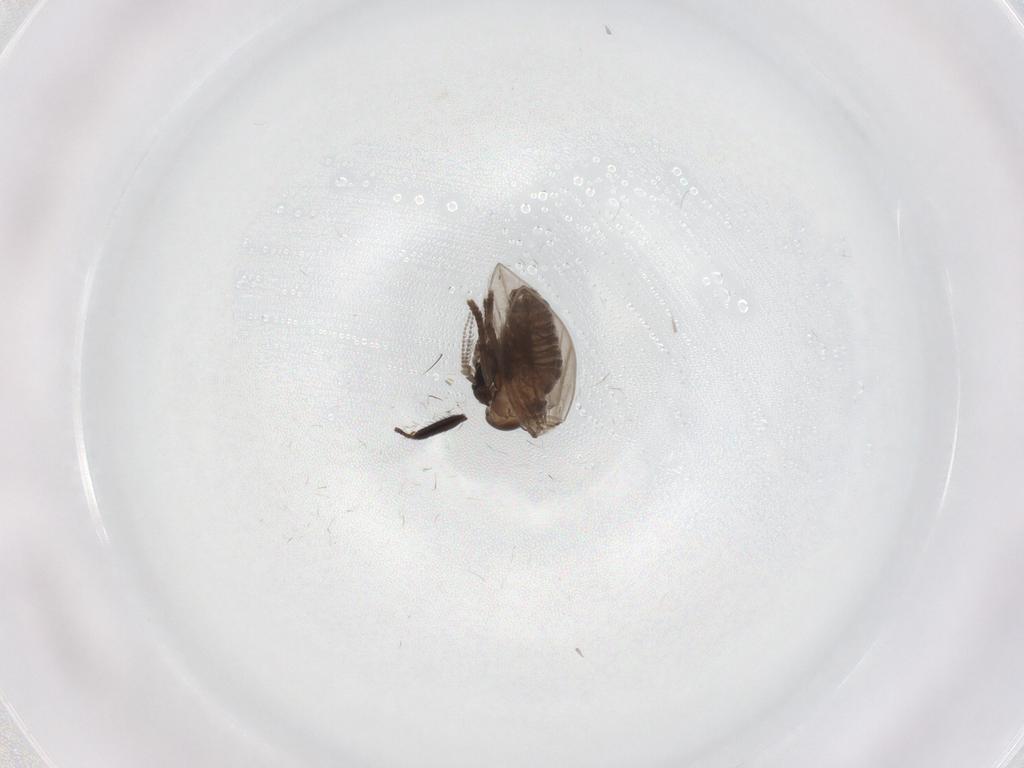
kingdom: Animalia
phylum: Arthropoda
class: Insecta
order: Diptera
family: Psychodidae
